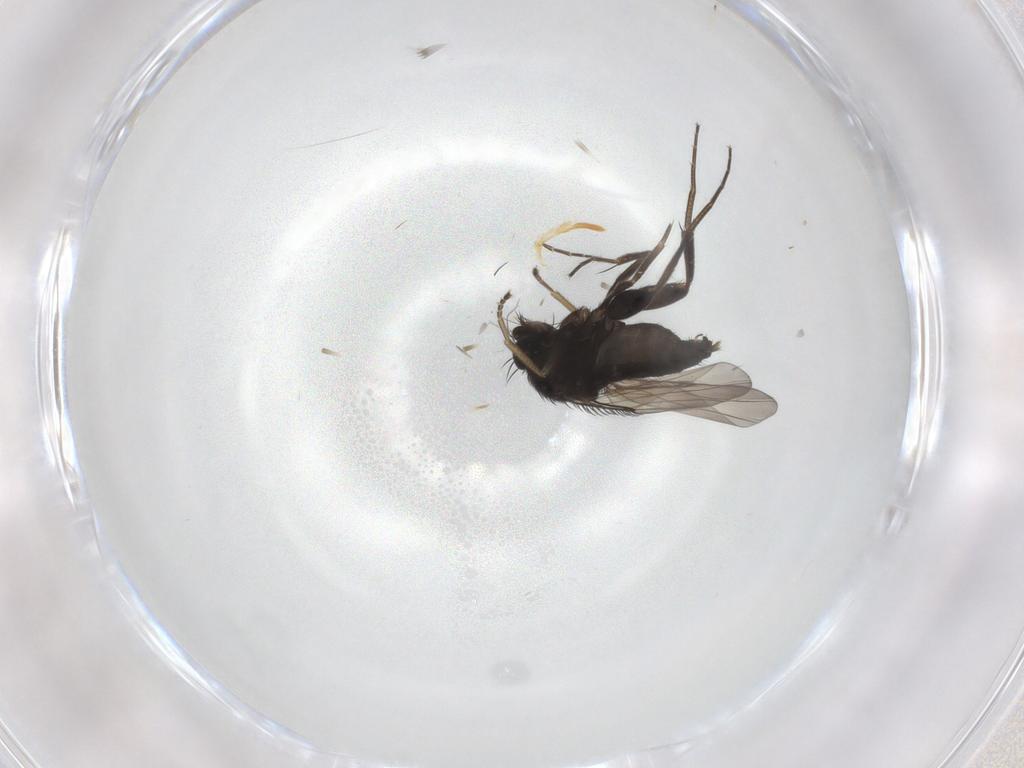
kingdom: Animalia
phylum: Arthropoda
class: Insecta
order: Diptera
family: Phoridae
